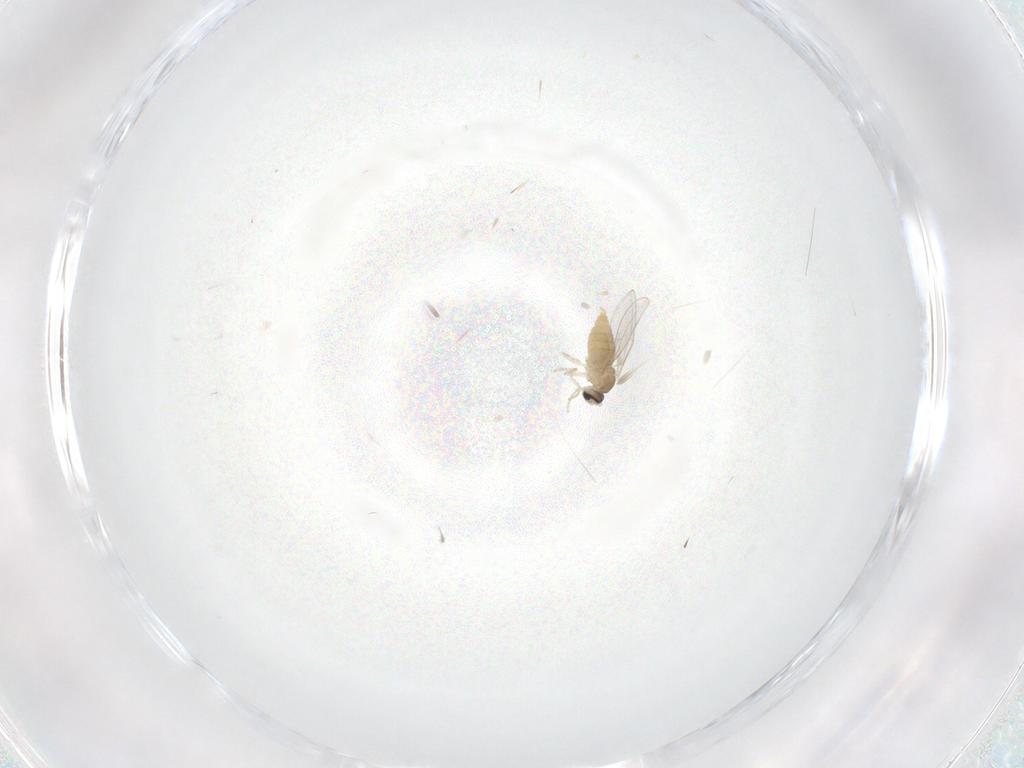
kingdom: Animalia
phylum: Arthropoda
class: Insecta
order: Diptera
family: Cecidomyiidae
